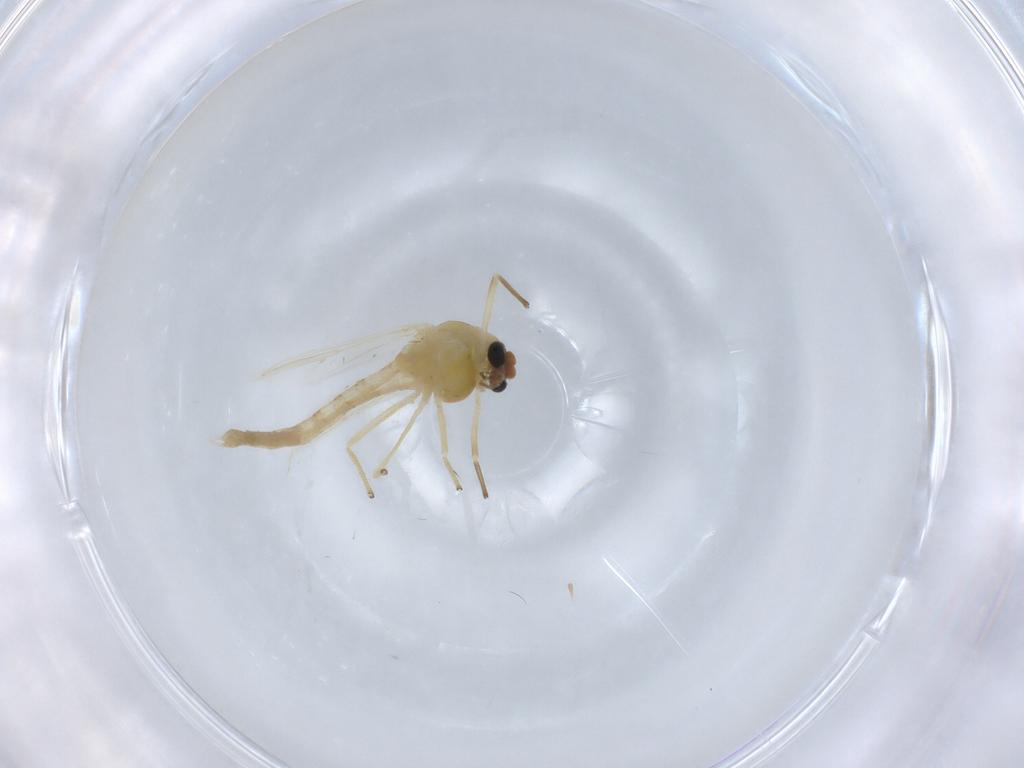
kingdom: Animalia
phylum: Arthropoda
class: Insecta
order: Diptera
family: Chironomidae
